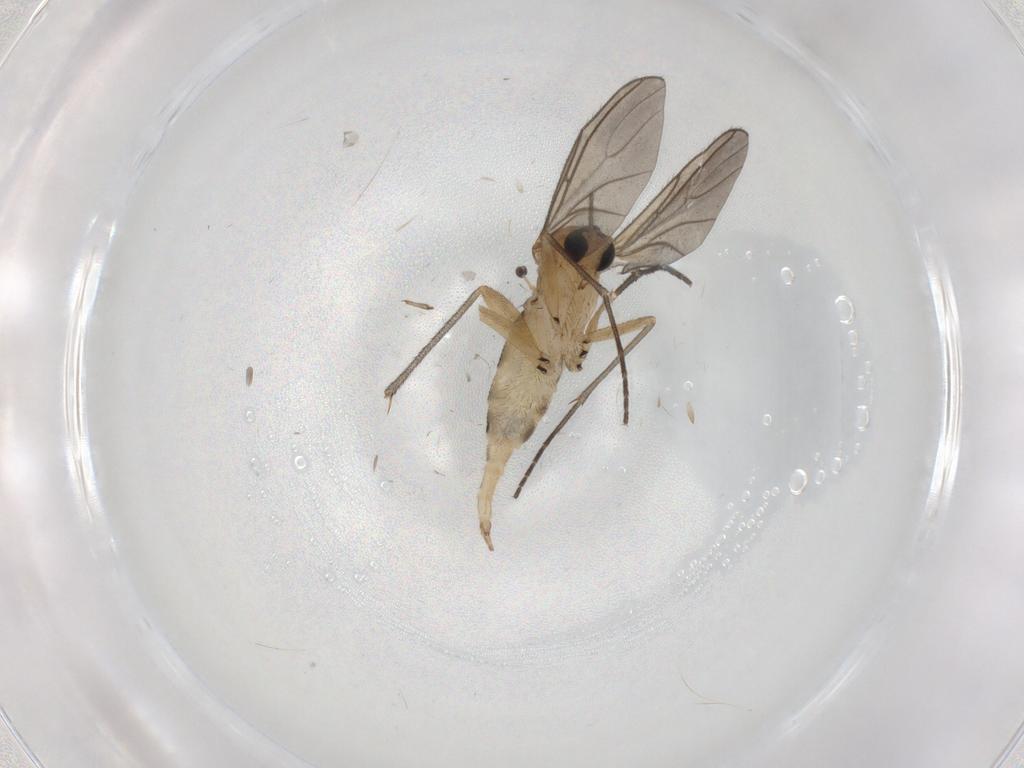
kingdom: Animalia
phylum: Arthropoda
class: Insecta
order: Diptera
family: Sciaridae
